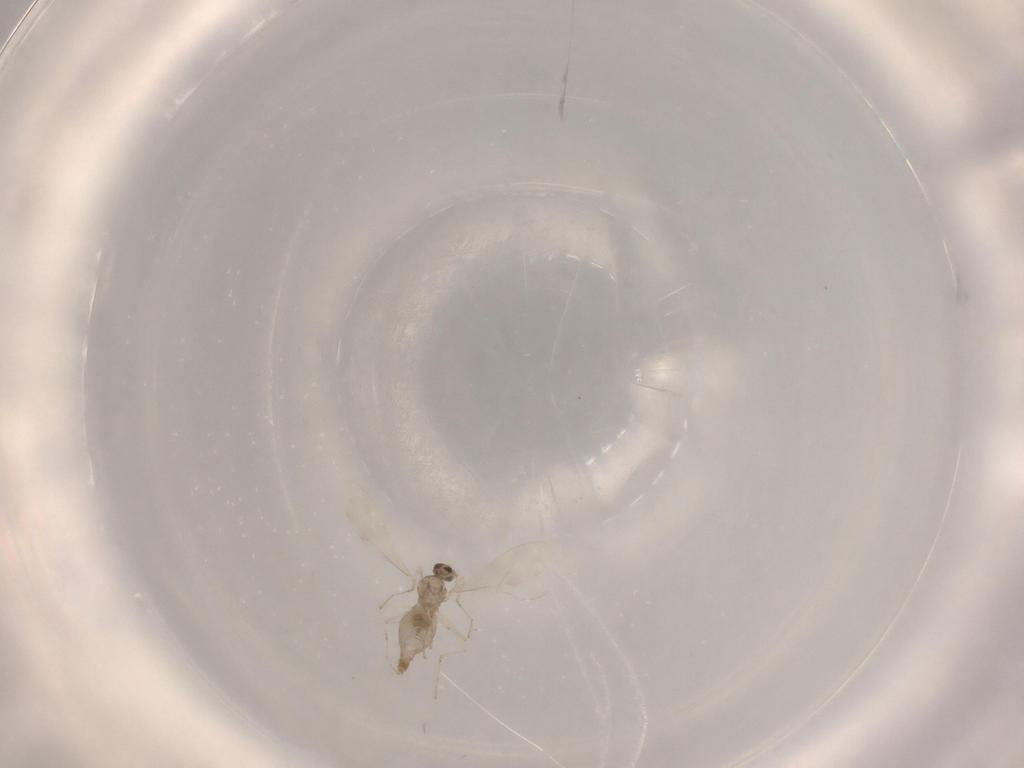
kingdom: Animalia
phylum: Arthropoda
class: Insecta
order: Diptera
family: Cecidomyiidae
